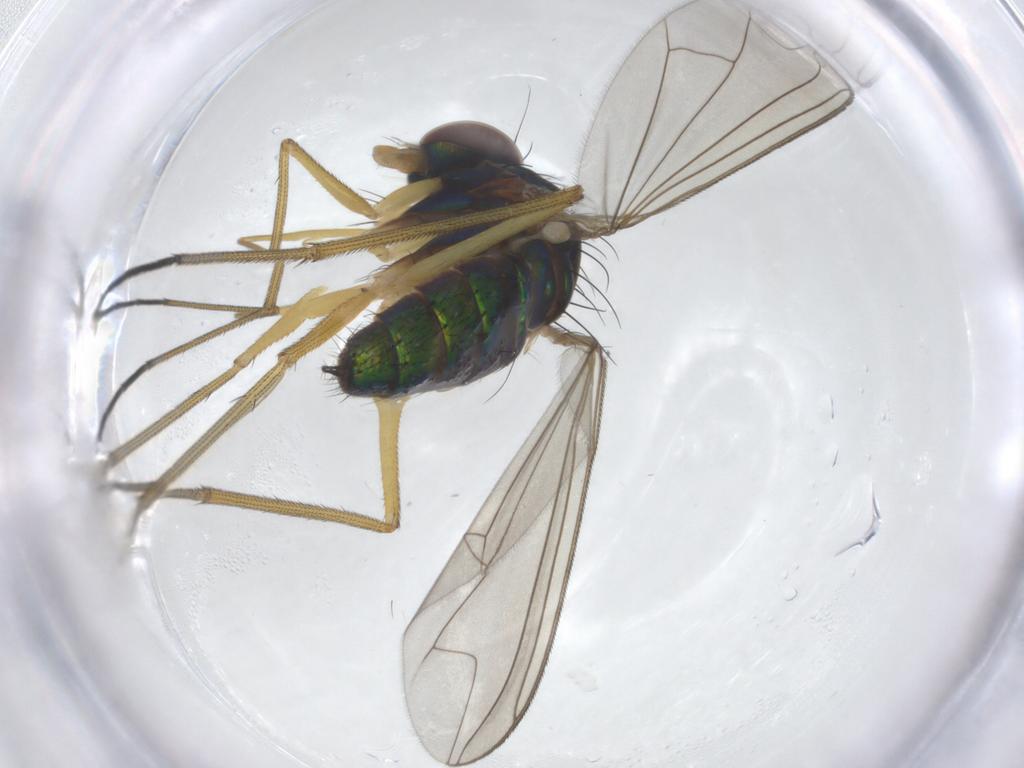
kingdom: Animalia
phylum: Arthropoda
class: Insecta
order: Diptera
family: Dolichopodidae
